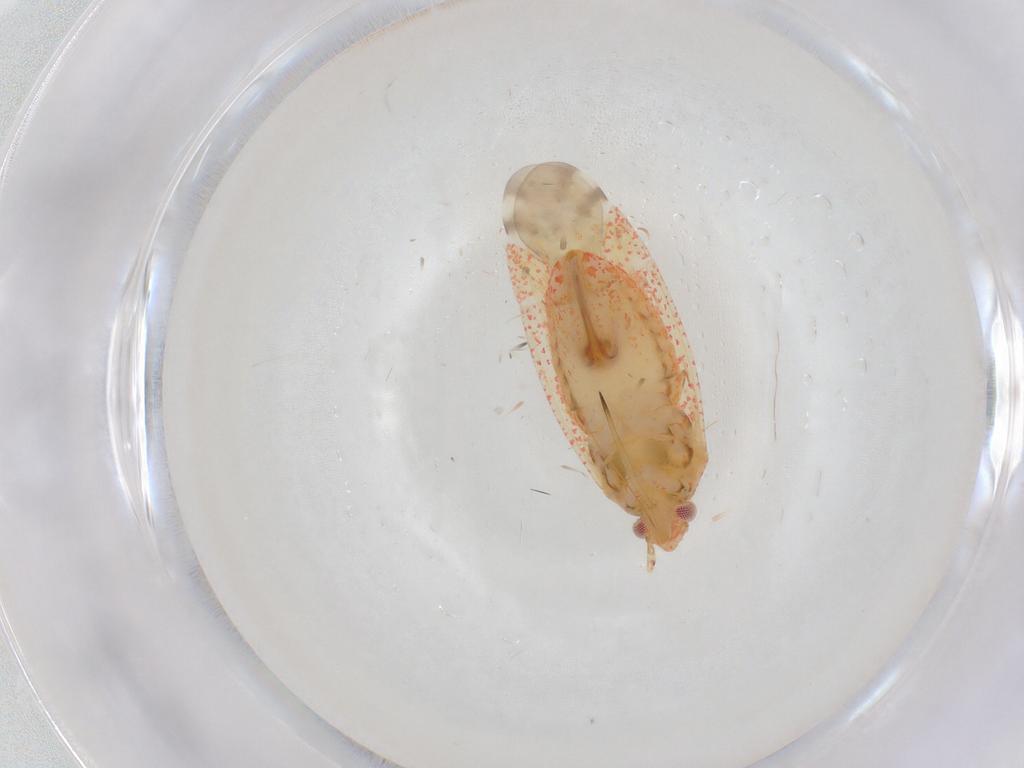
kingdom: Animalia
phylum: Arthropoda
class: Insecta
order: Hemiptera
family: Miridae
